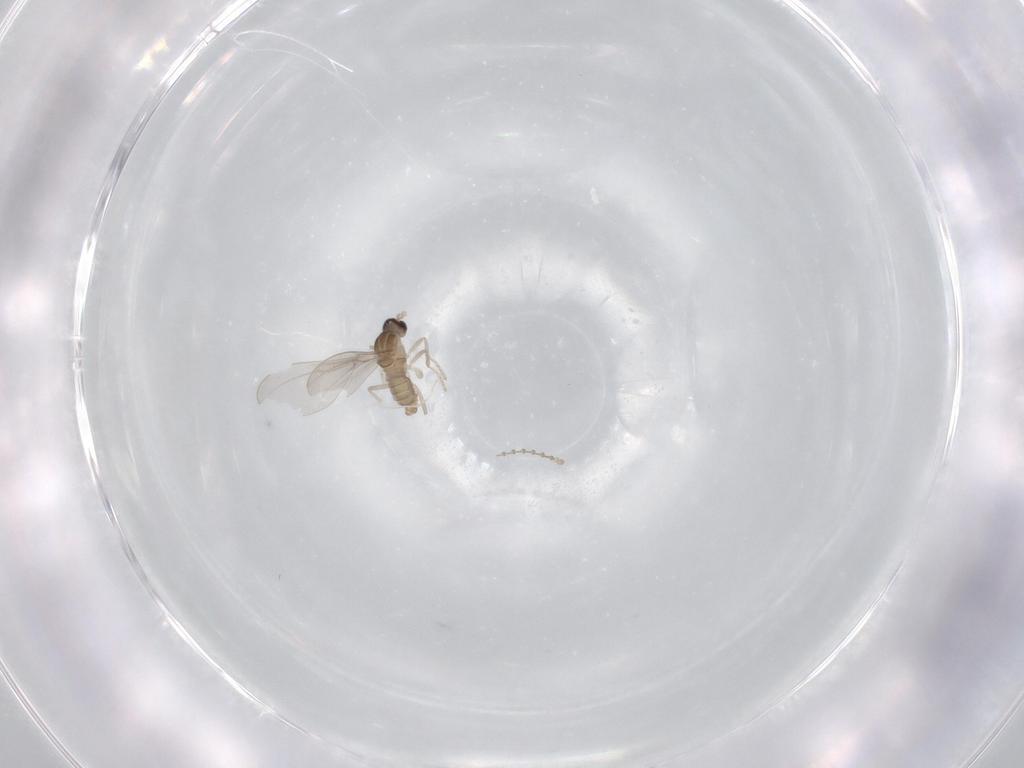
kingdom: Animalia
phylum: Arthropoda
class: Insecta
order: Diptera
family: Cecidomyiidae
